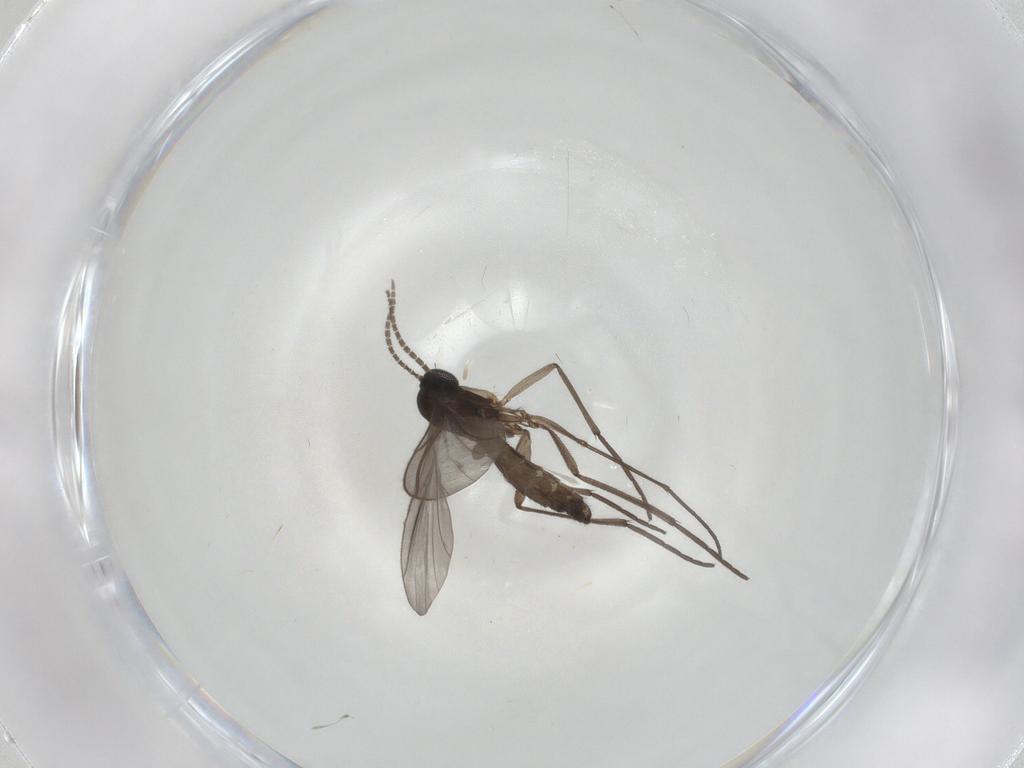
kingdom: Animalia
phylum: Arthropoda
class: Insecta
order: Diptera
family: Sciaridae
